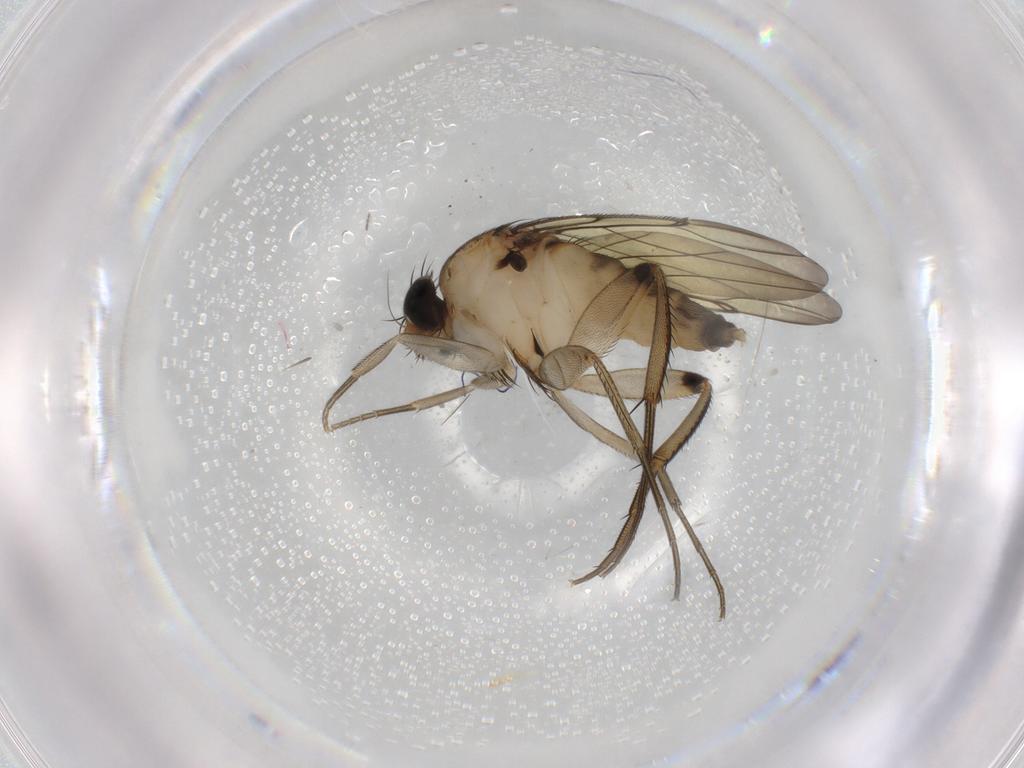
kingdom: Animalia
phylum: Arthropoda
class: Insecta
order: Diptera
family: Phoridae
